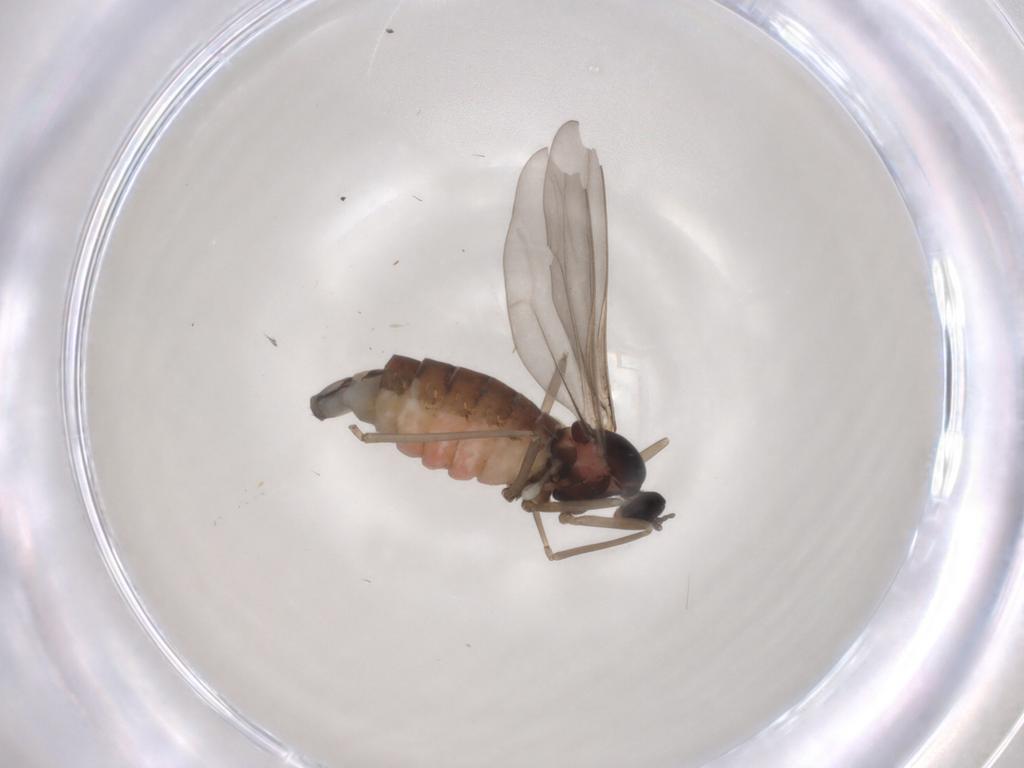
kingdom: Animalia
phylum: Arthropoda
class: Insecta
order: Diptera
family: Cecidomyiidae
